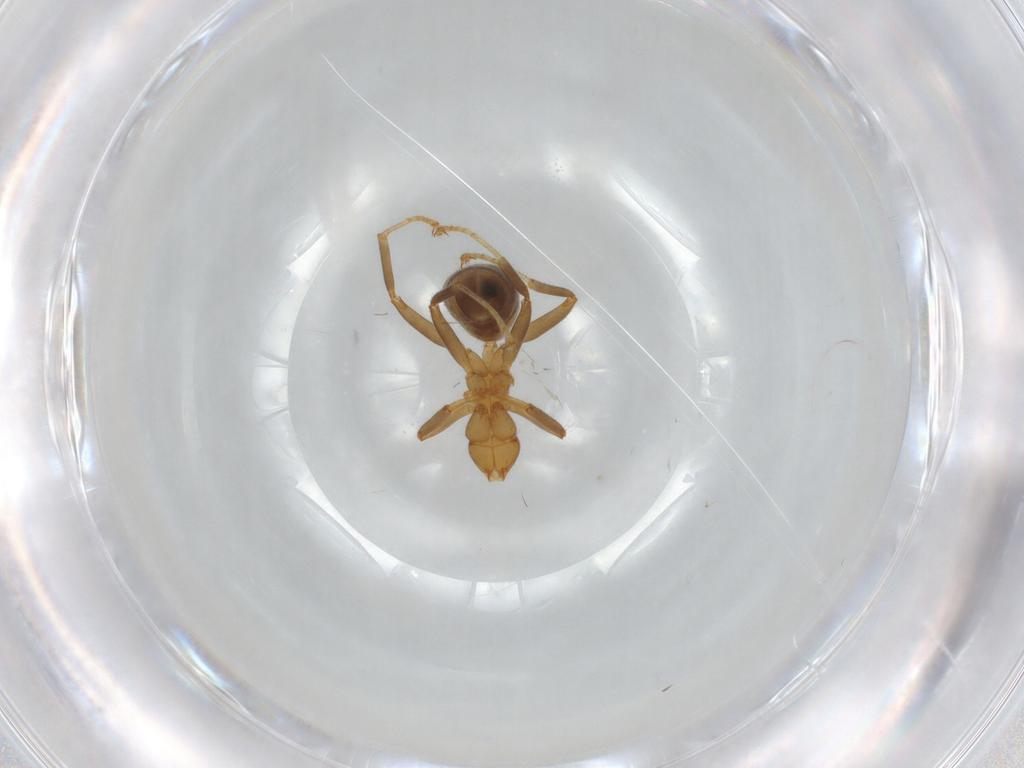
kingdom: Animalia
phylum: Arthropoda
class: Insecta
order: Hymenoptera
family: Formicidae
